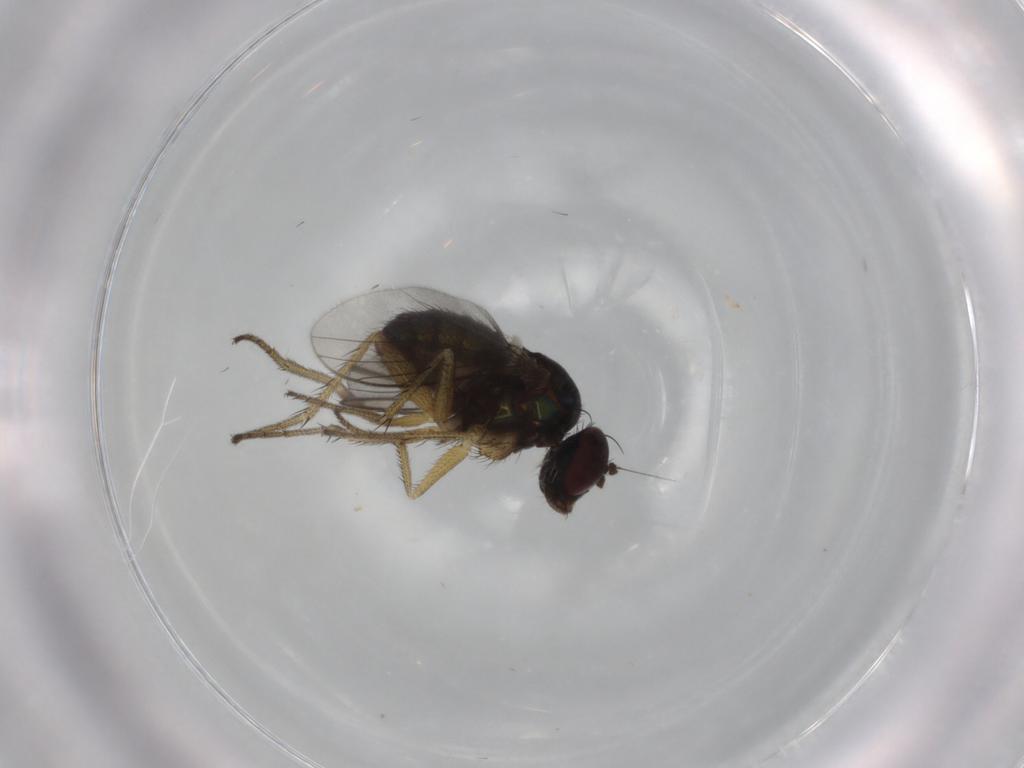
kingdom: Animalia
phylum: Arthropoda
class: Insecta
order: Diptera
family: Dolichopodidae
